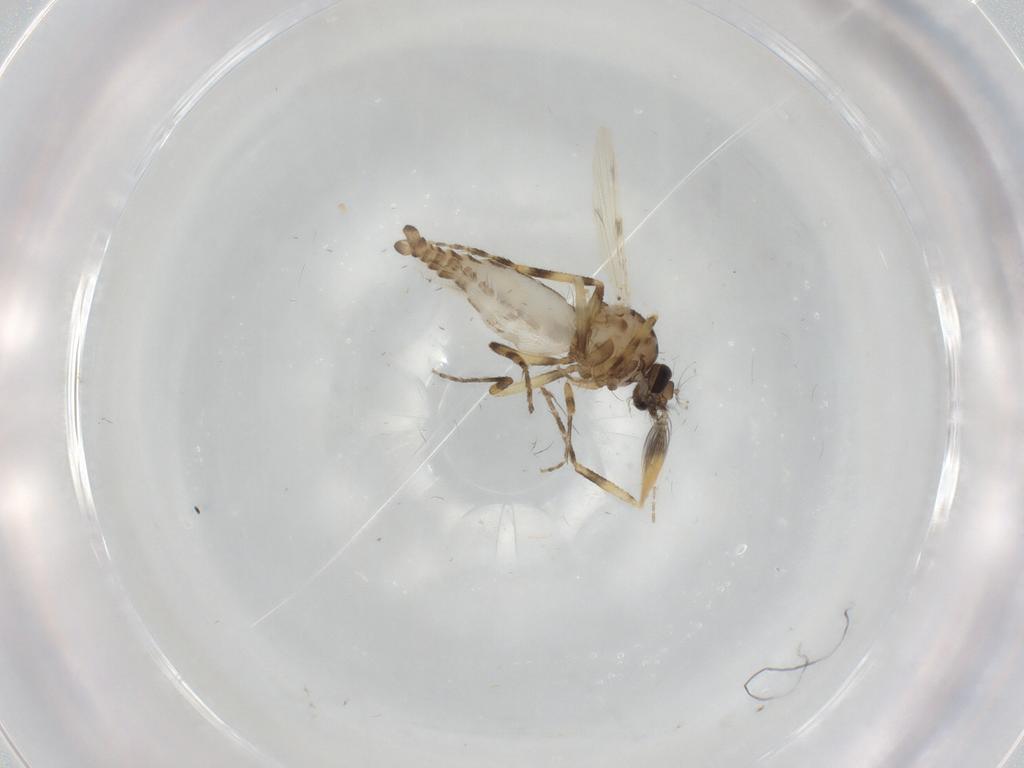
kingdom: Animalia
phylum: Arthropoda
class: Insecta
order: Diptera
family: Ceratopogonidae
